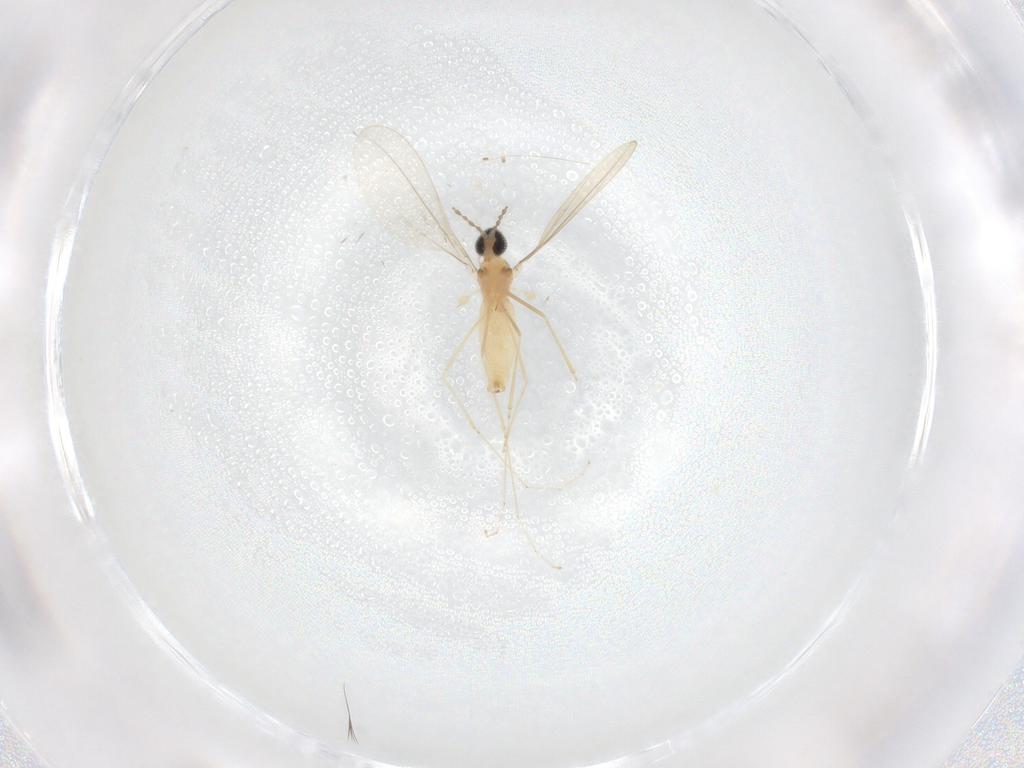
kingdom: Animalia
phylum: Arthropoda
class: Insecta
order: Diptera
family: Cecidomyiidae
